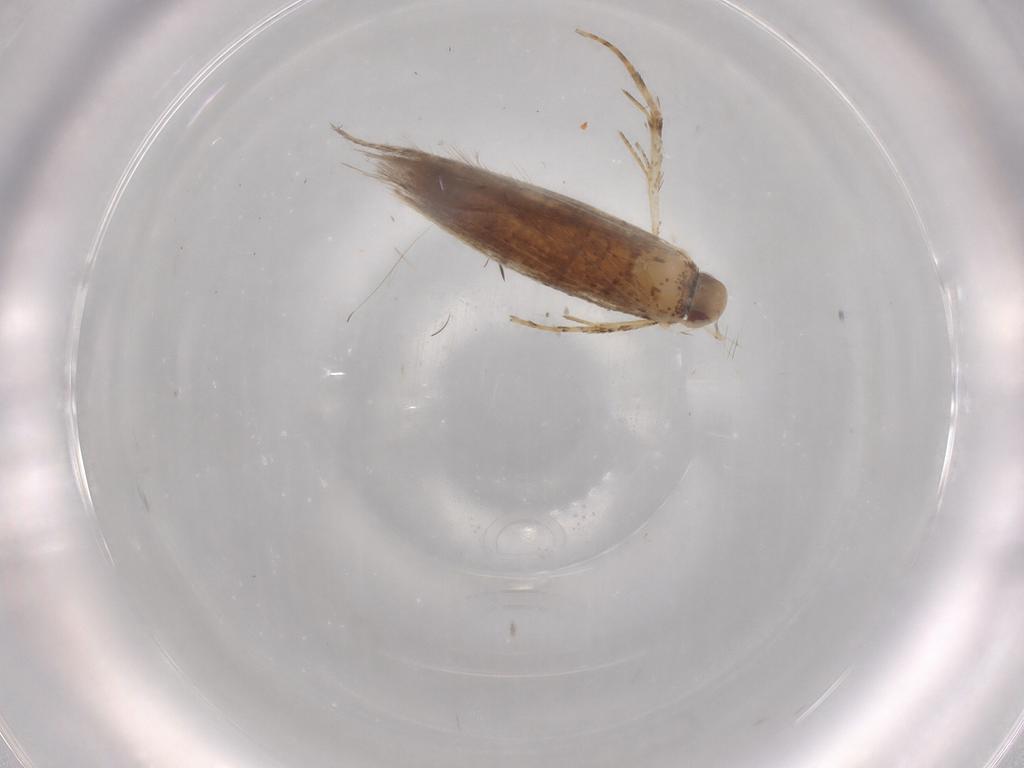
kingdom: Animalia
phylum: Arthropoda
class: Insecta
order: Lepidoptera
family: Cosmopterigidae
